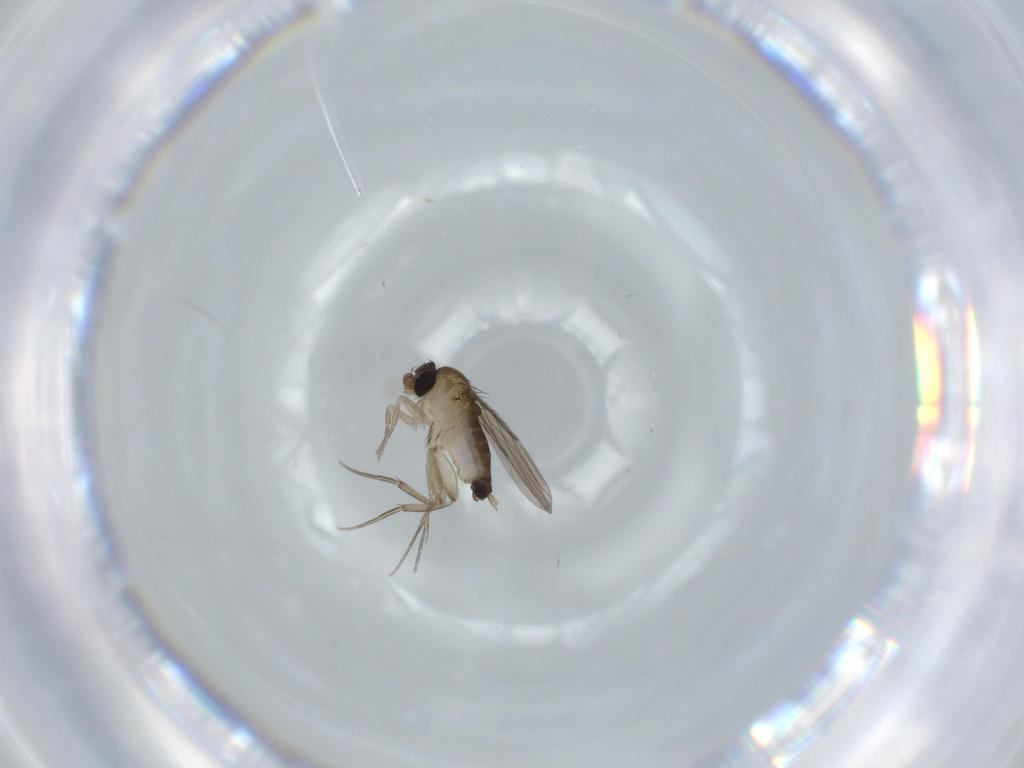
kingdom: Animalia
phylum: Arthropoda
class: Insecta
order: Diptera
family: Phoridae
